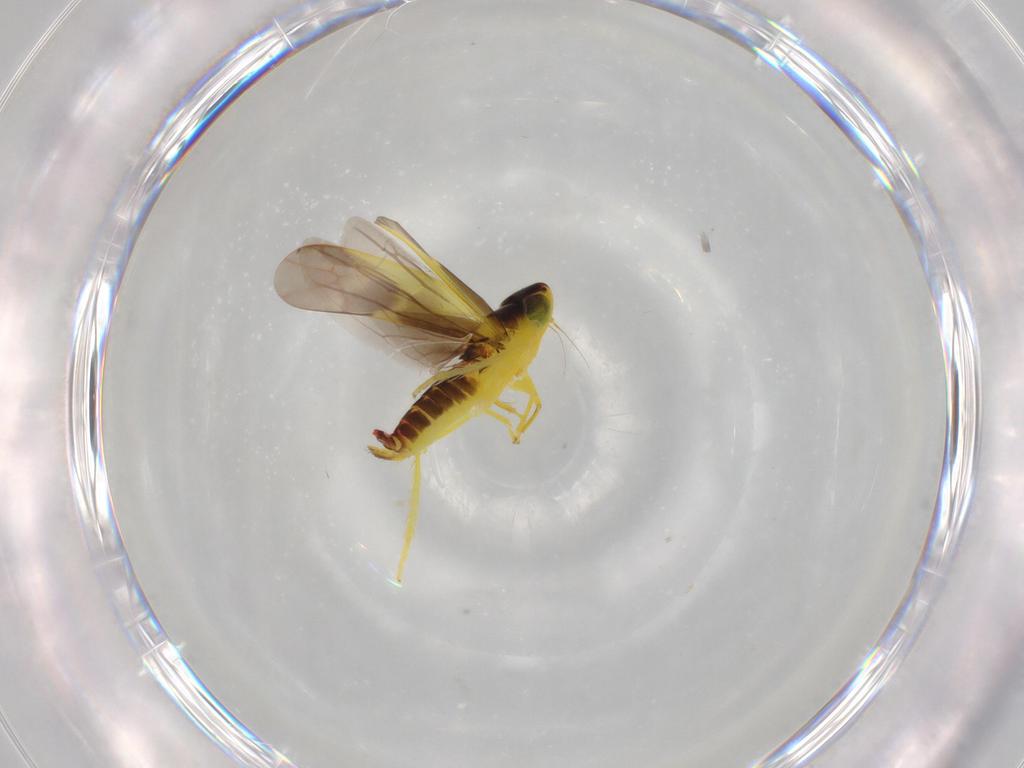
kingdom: Animalia
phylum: Arthropoda
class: Insecta
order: Hemiptera
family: Cicadellidae
